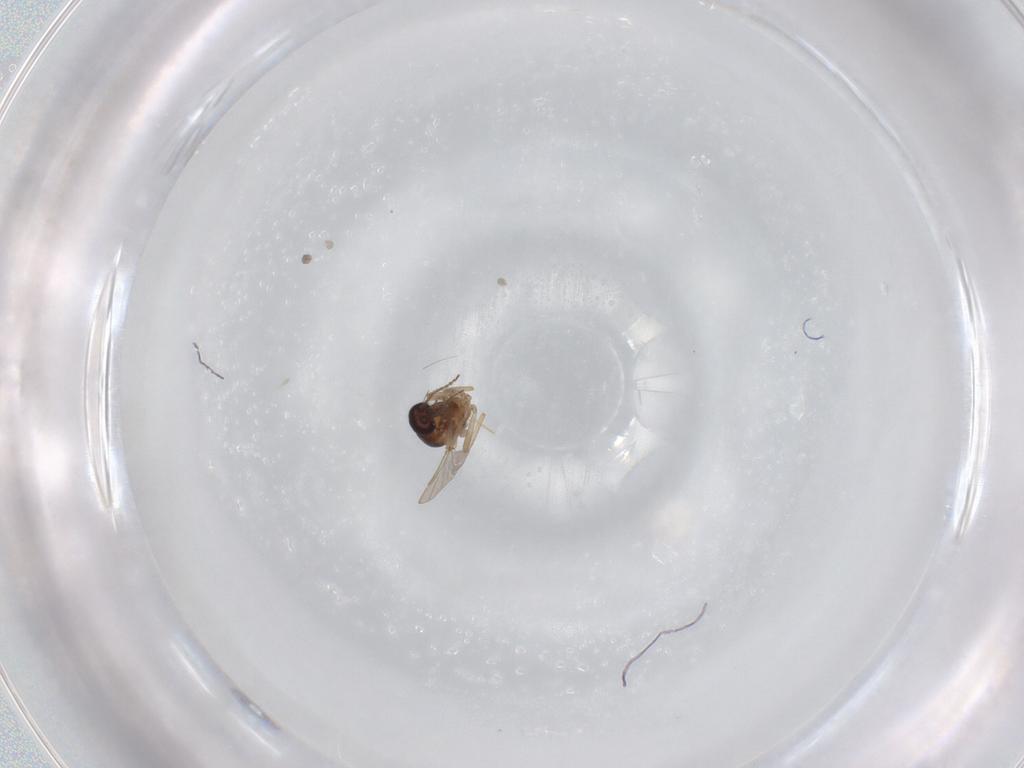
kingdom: Animalia
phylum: Arthropoda
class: Insecta
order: Diptera
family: Ceratopogonidae
